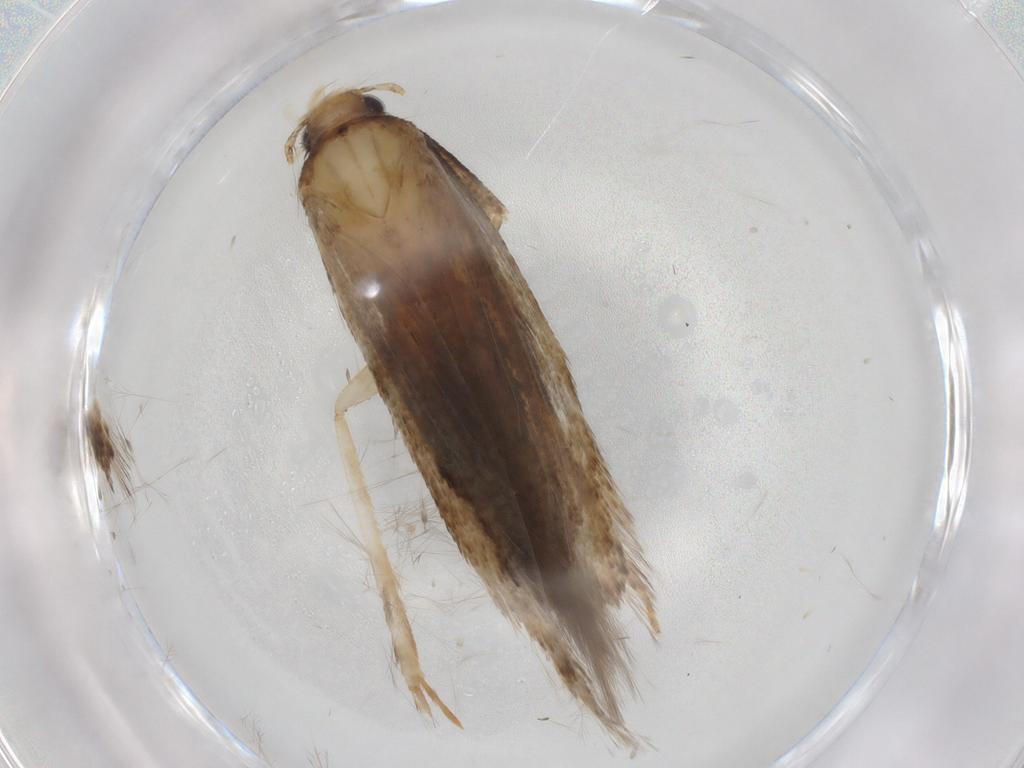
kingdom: Animalia
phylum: Arthropoda
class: Insecta
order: Lepidoptera
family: Gelechiidae
